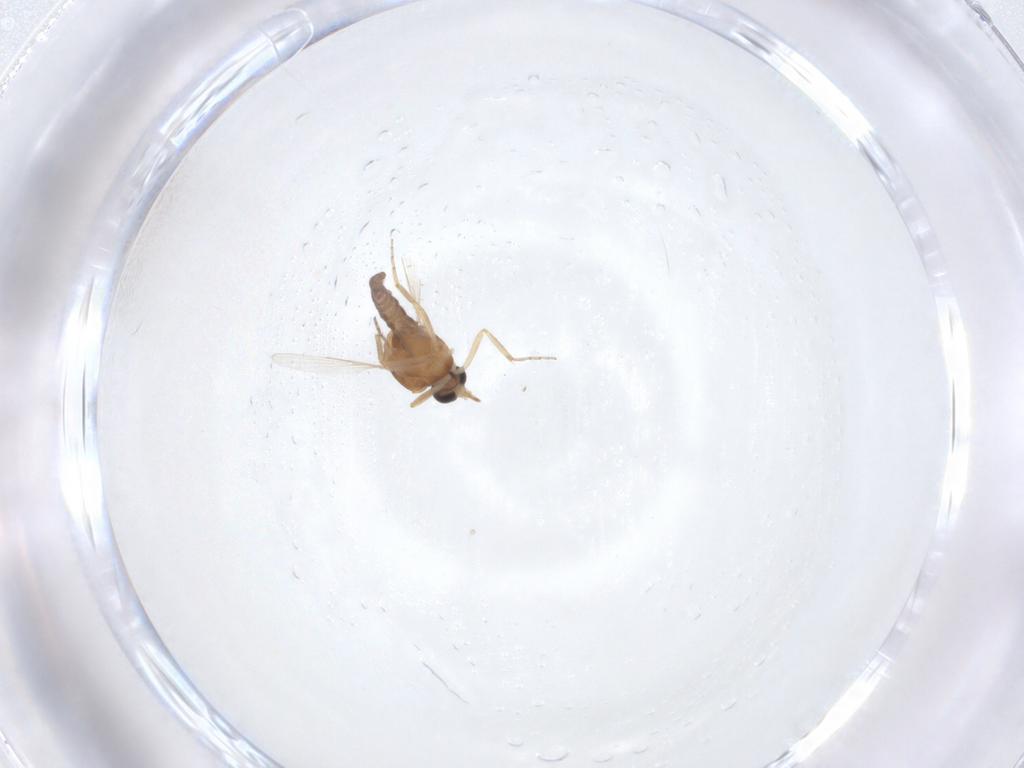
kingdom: Animalia
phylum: Arthropoda
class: Insecta
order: Diptera
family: Ceratopogonidae
